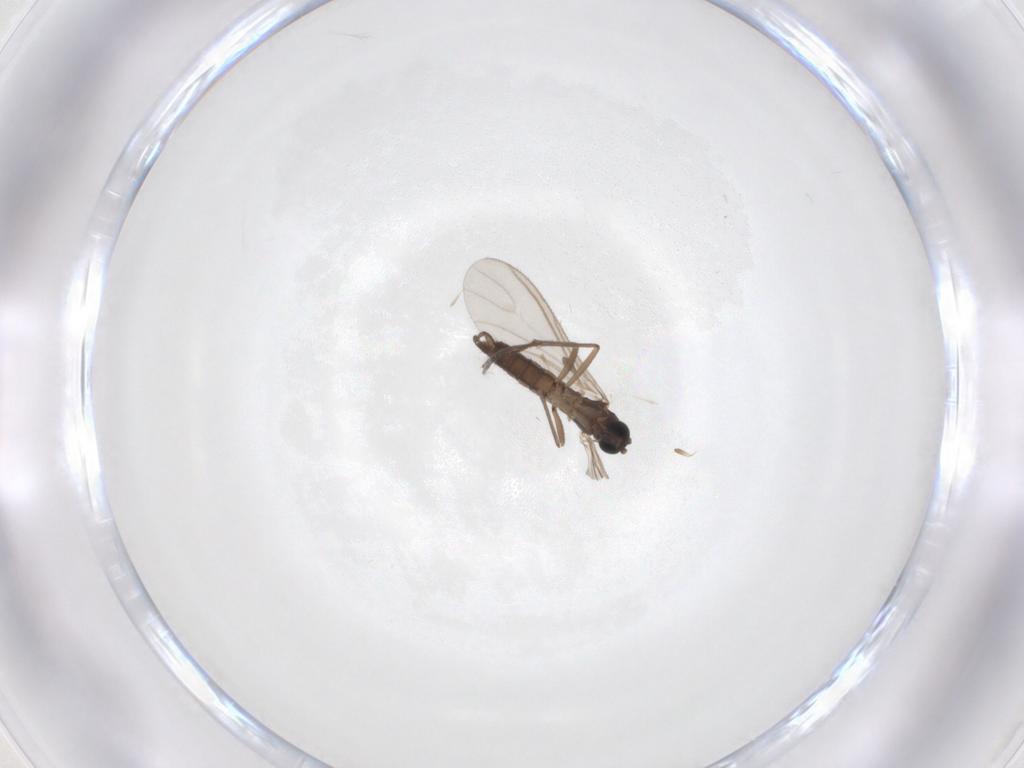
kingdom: Animalia
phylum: Arthropoda
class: Insecta
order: Diptera
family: Sciaridae
